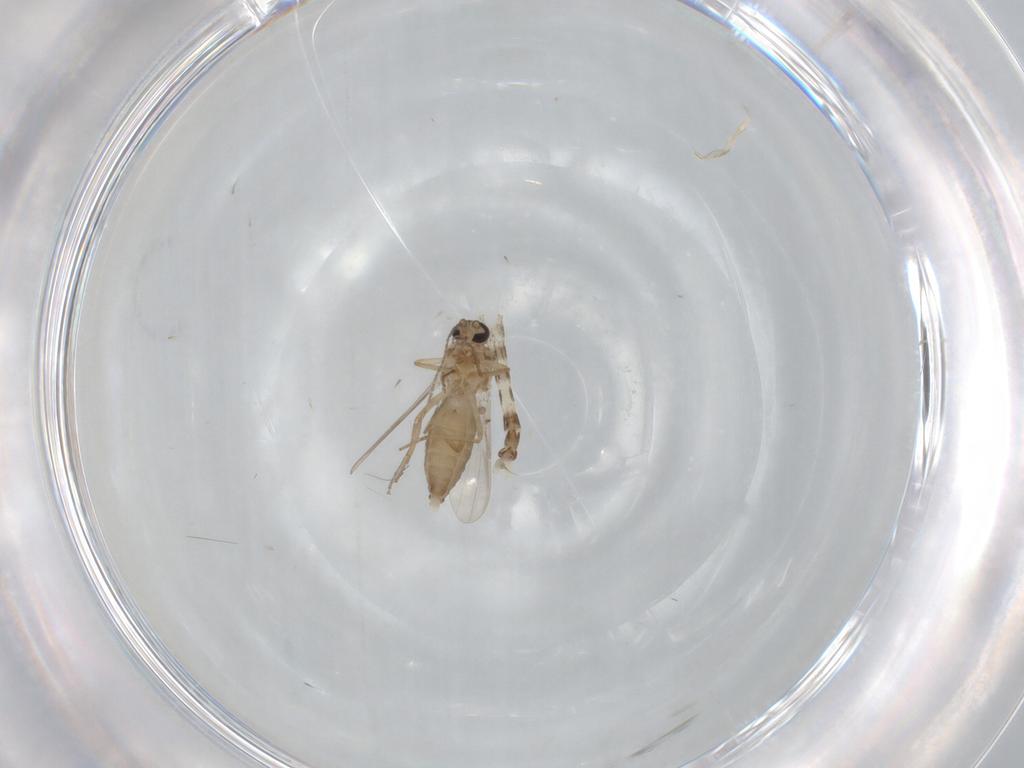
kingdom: Animalia
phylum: Arthropoda
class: Insecta
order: Diptera
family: Ceratopogonidae
